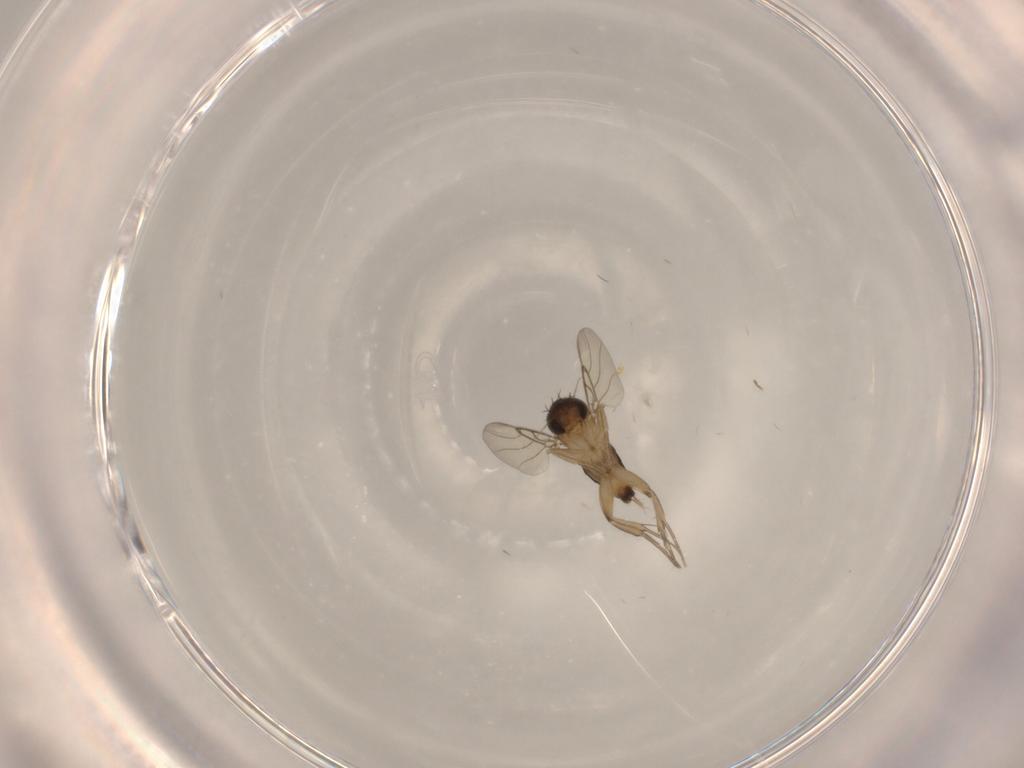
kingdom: Animalia
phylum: Arthropoda
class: Insecta
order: Diptera
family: Phoridae
